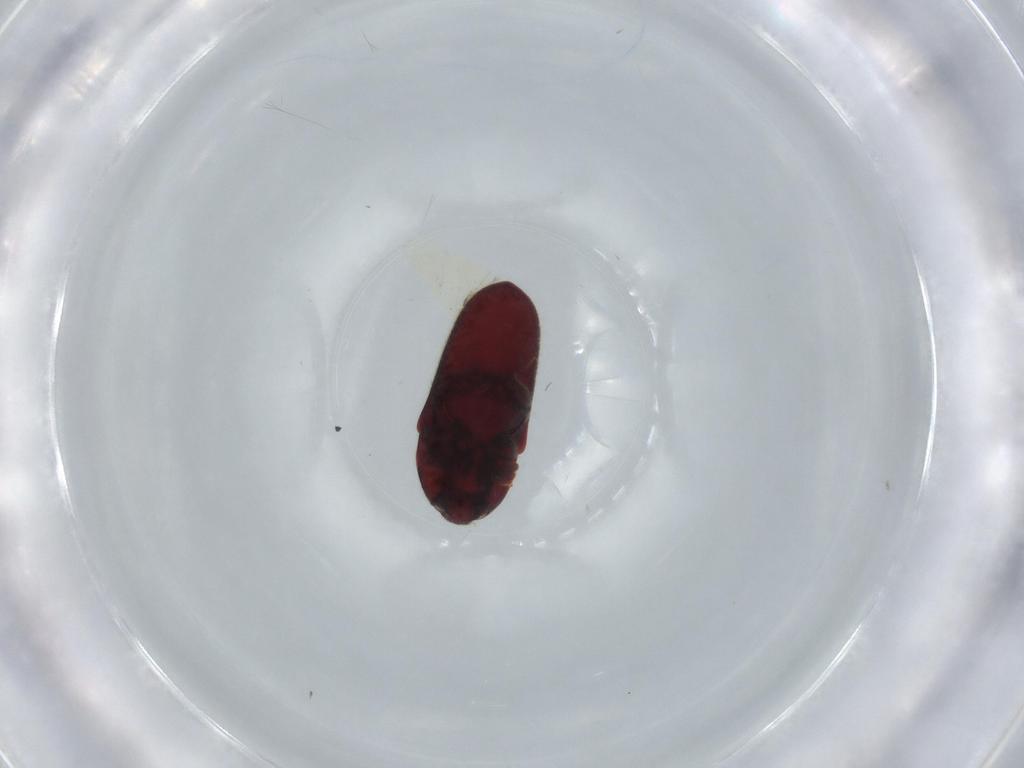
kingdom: Animalia
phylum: Arthropoda
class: Insecta
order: Coleoptera
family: Throscidae
